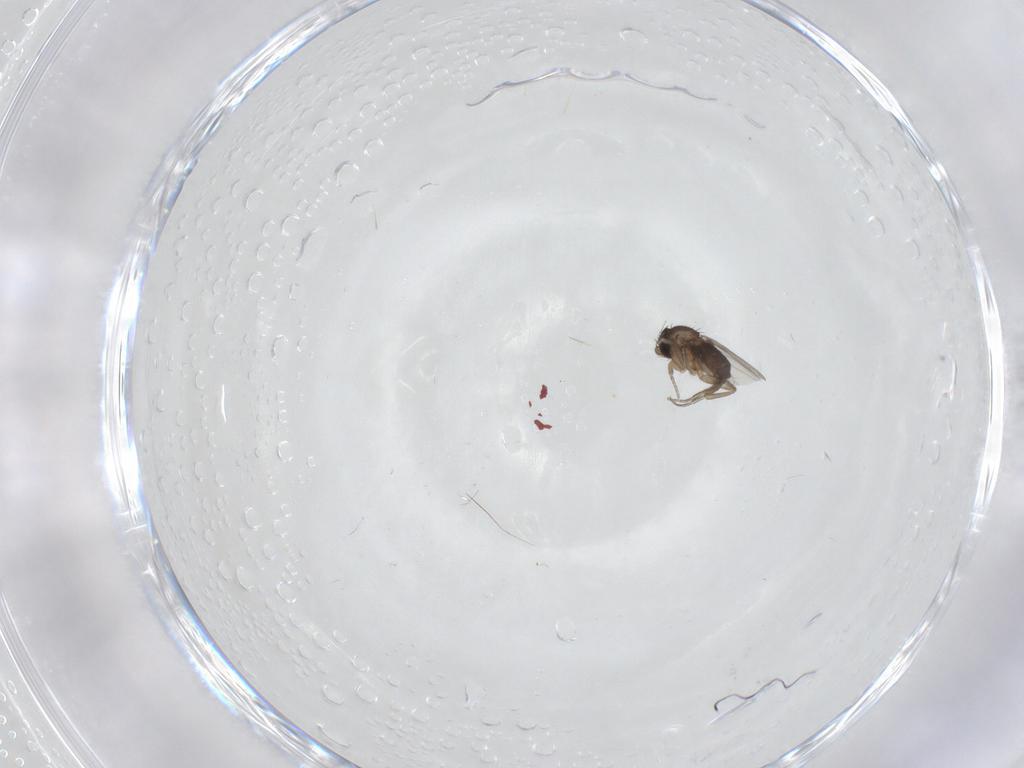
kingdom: Animalia
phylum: Arthropoda
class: Insecta
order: Diptera
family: Phoridae
